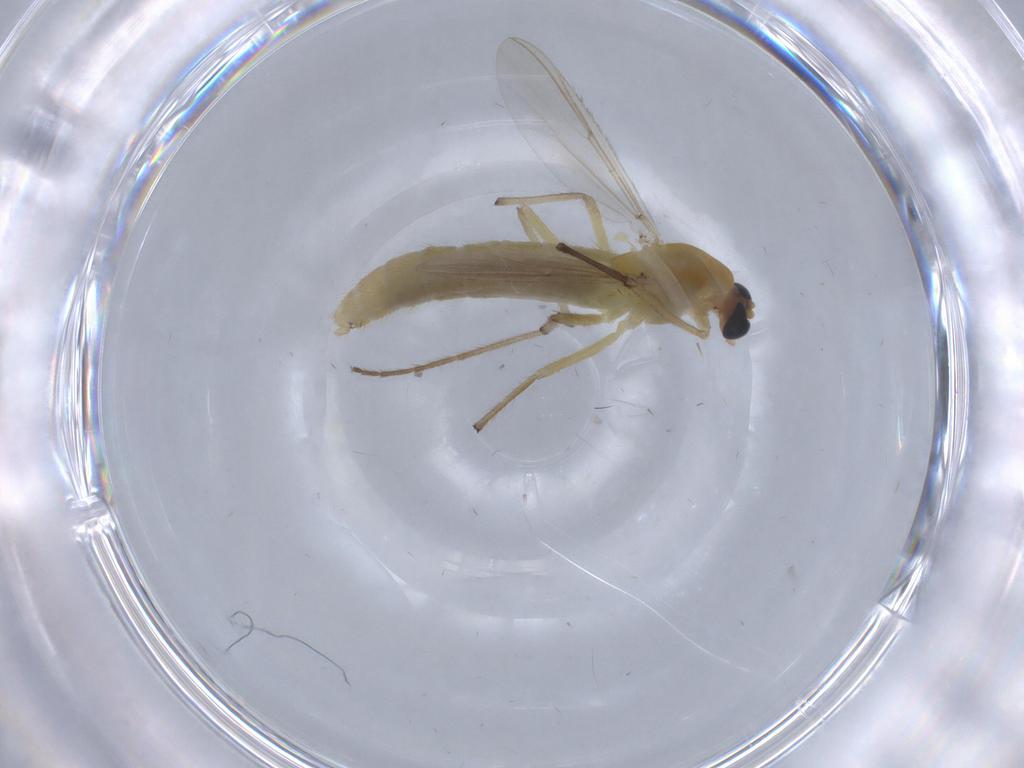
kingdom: Animalia
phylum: Arthropoda
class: Insecta
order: Diptera
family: Chironomidae
